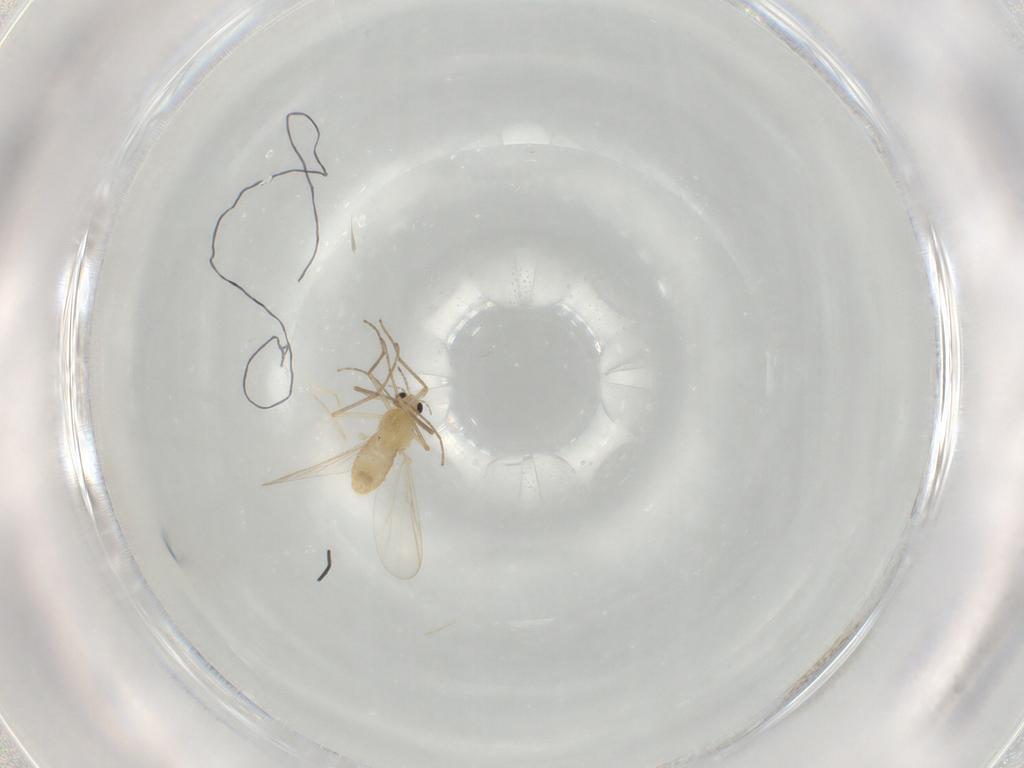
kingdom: Animalia
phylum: Arthropoda
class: Insecta
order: Diptera
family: Chironomidae
